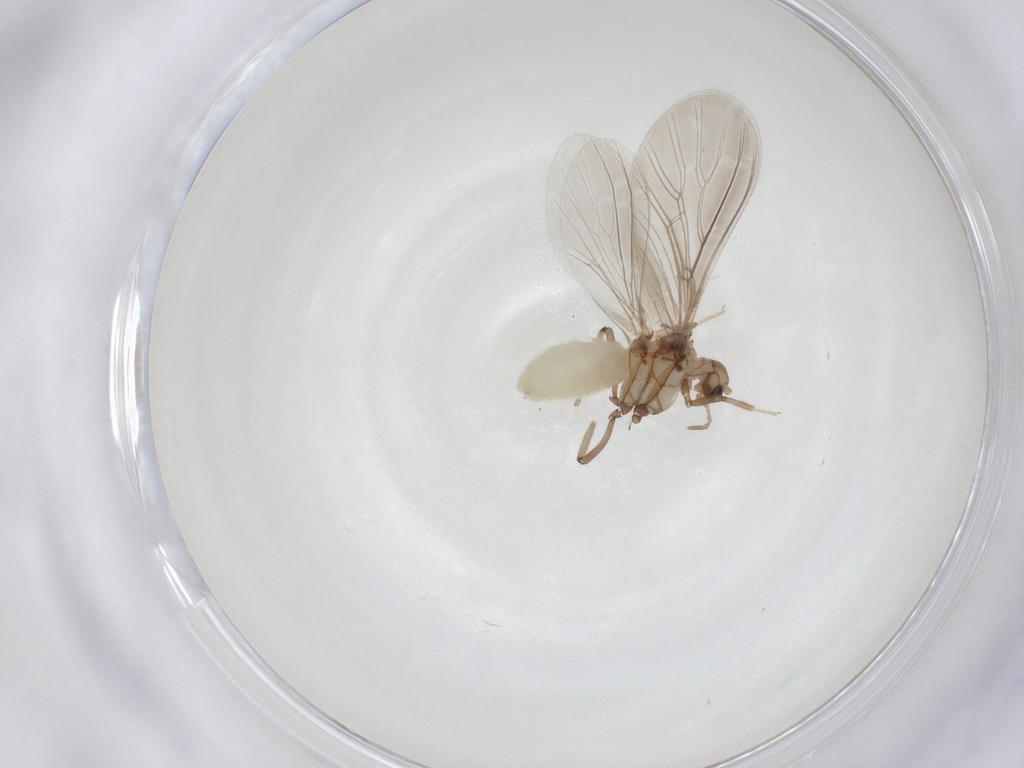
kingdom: Animalia
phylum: Arthropoda
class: Insecta
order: Neuroptera
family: Coniopterygidae
